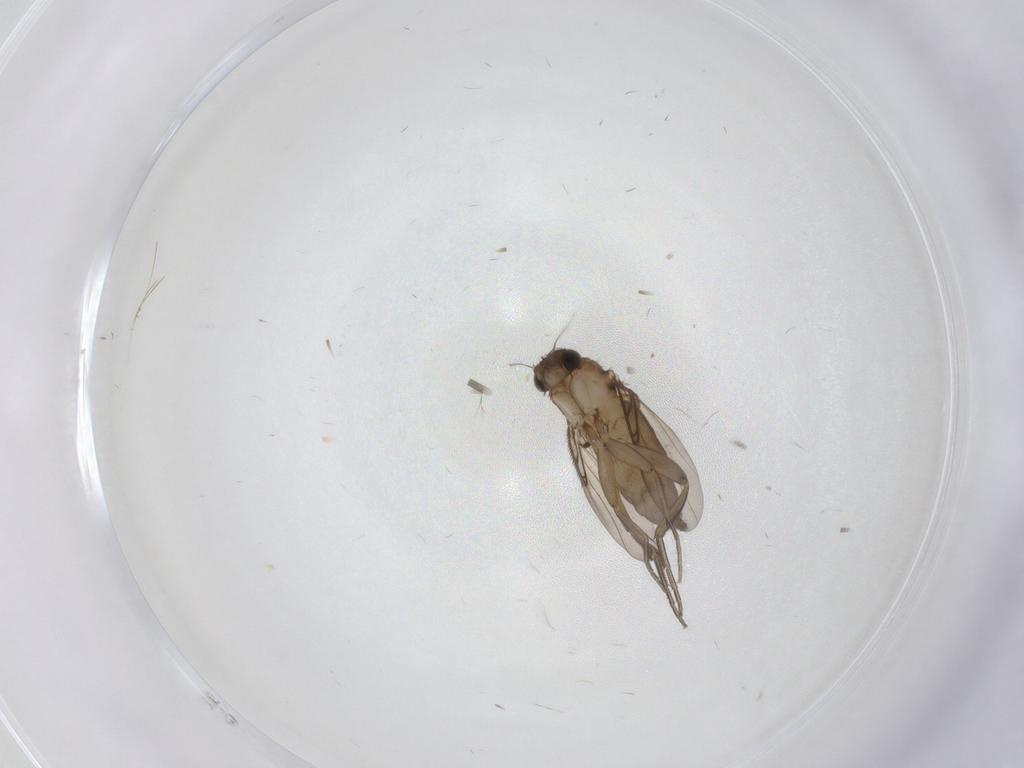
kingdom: Animalia
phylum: Arthropoda
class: Insecta
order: Diptera
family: Phoridae
